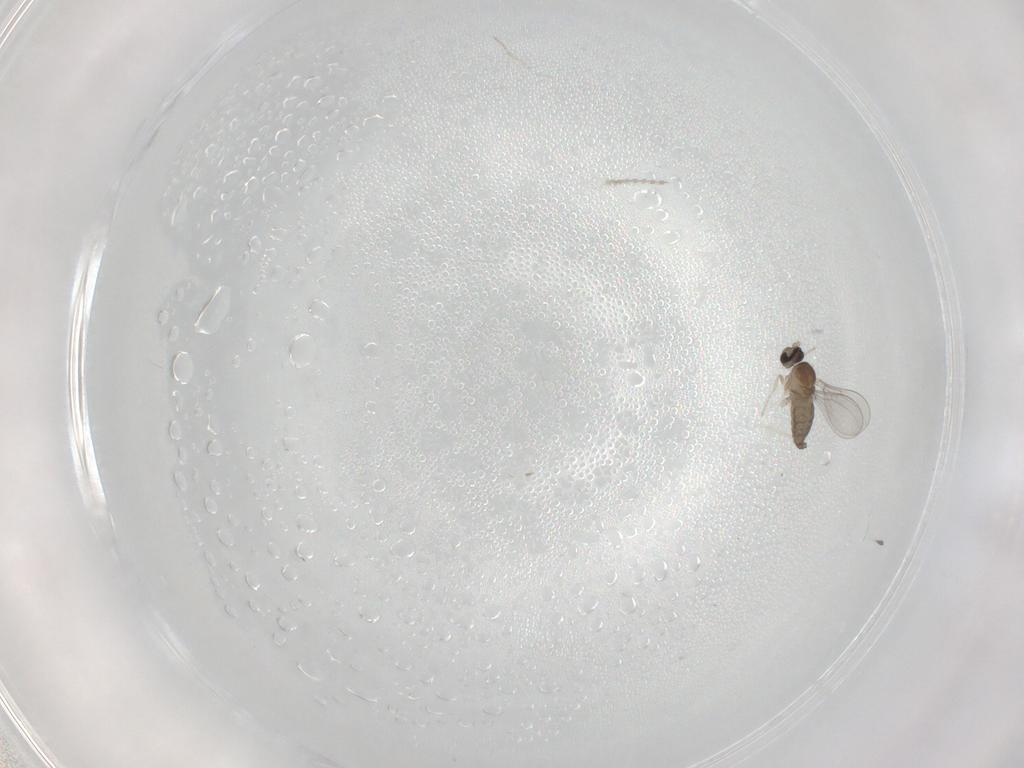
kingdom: Animalia
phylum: Arthropoda
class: Insecta
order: Diptera
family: Cecidomyiidae
